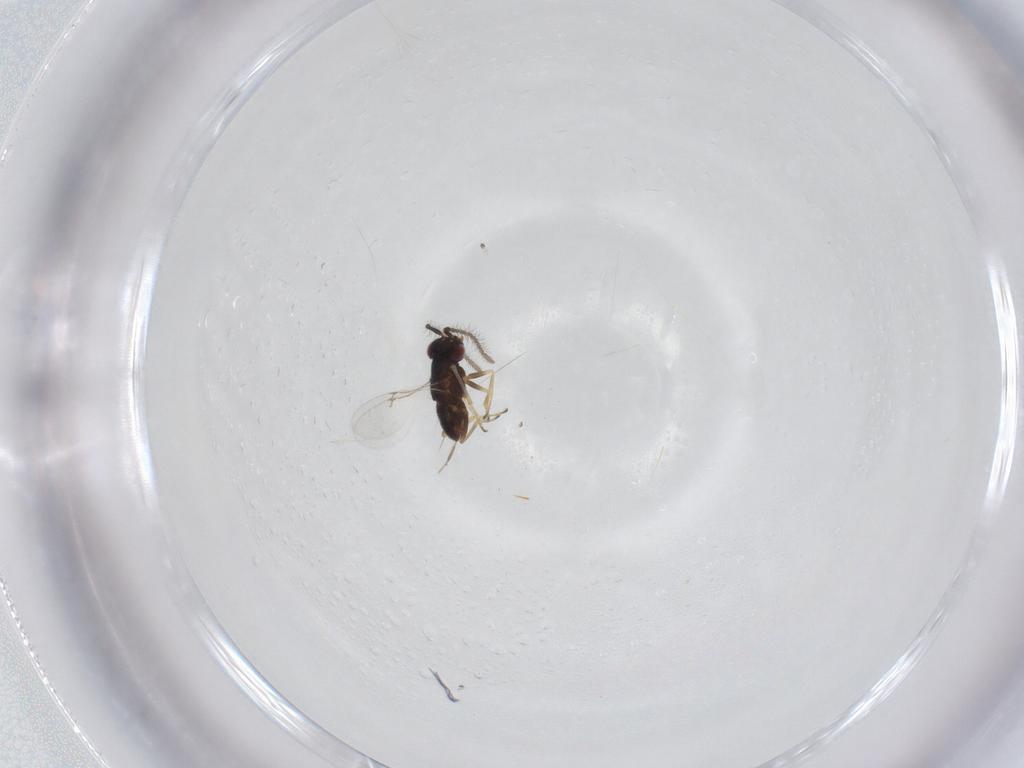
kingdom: Animalia
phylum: Arthropoda
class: Insecta
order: Hymenoptera
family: Encyrtidae
